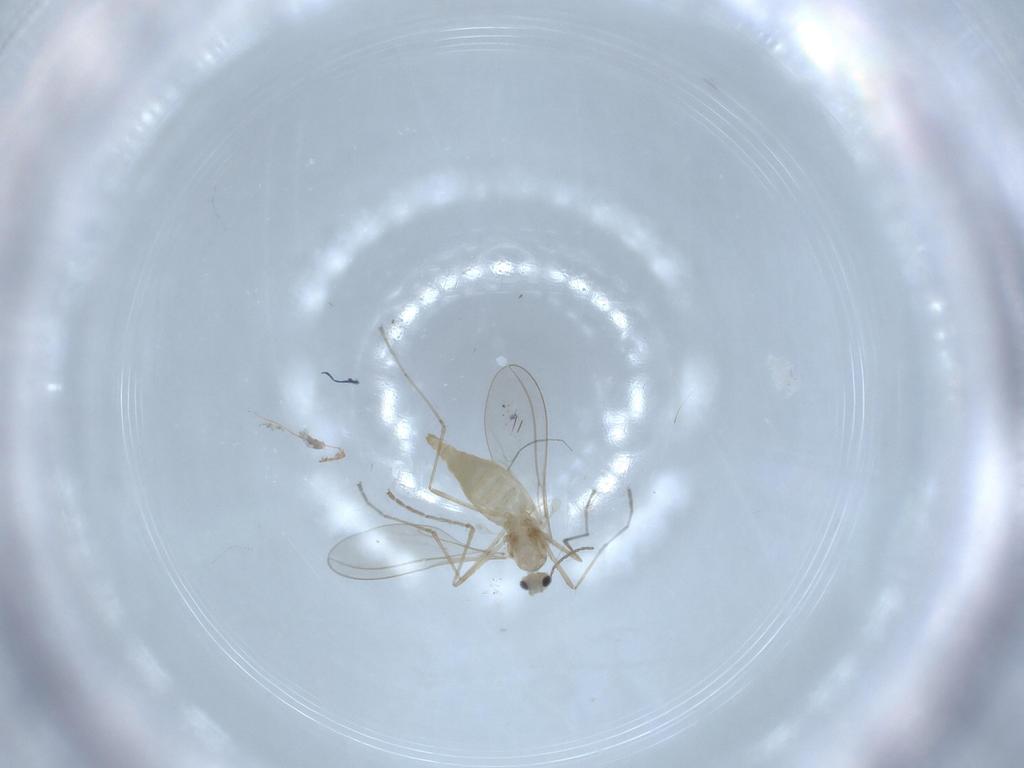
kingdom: Animalia
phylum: Arthropoda
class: Insecta
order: Diptera
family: Cecidomyiidae
